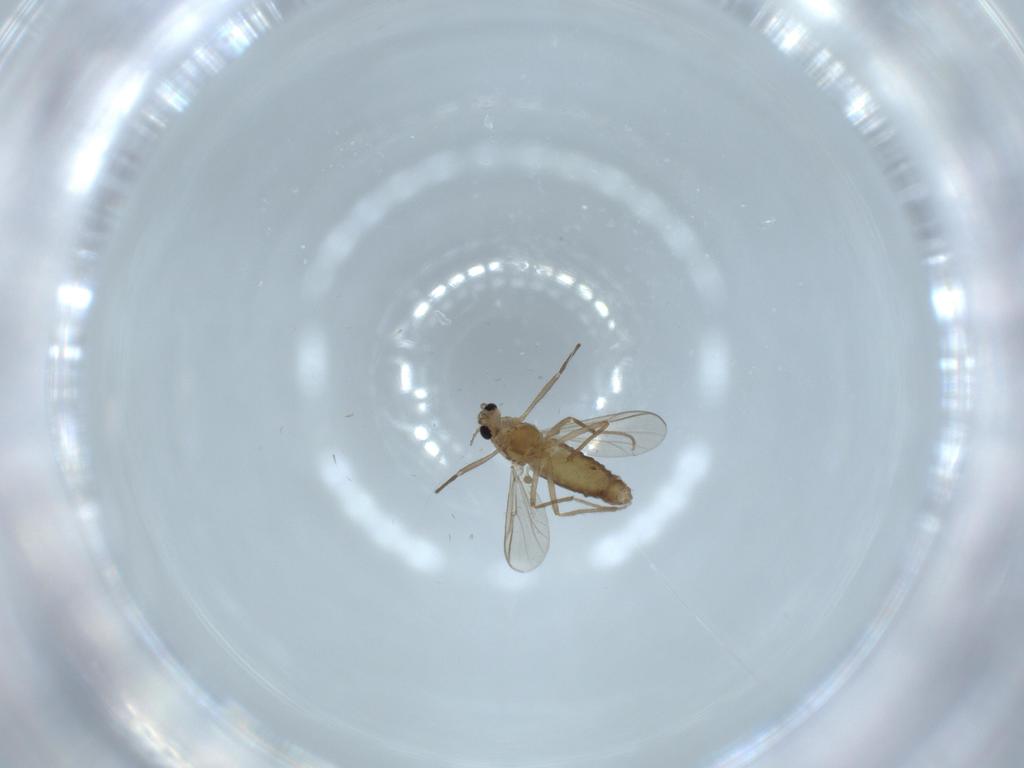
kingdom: Animalia
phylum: Arthropoda
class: Insecta
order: Diptera
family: Chironomidae
